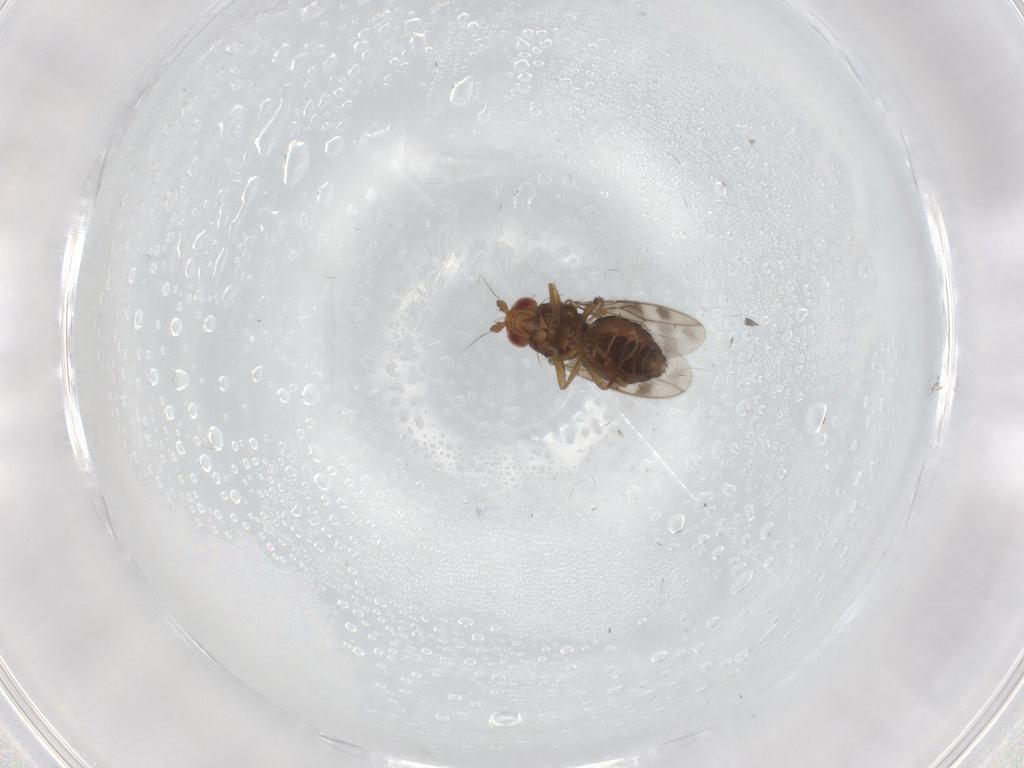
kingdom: Animalia
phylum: Arthropoda
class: Insecta
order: Diptera
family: Sphaeroceridae
